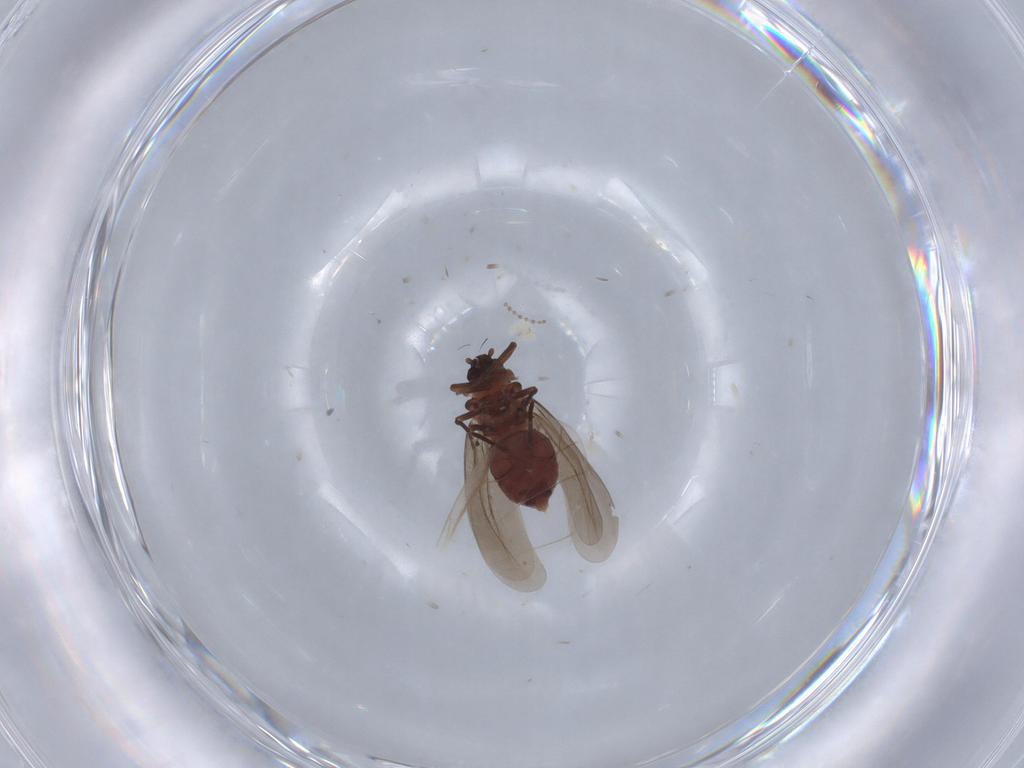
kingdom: Animalia
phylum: Arthropoda
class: Insecta
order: Hemiptera
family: Aleyrodidae
